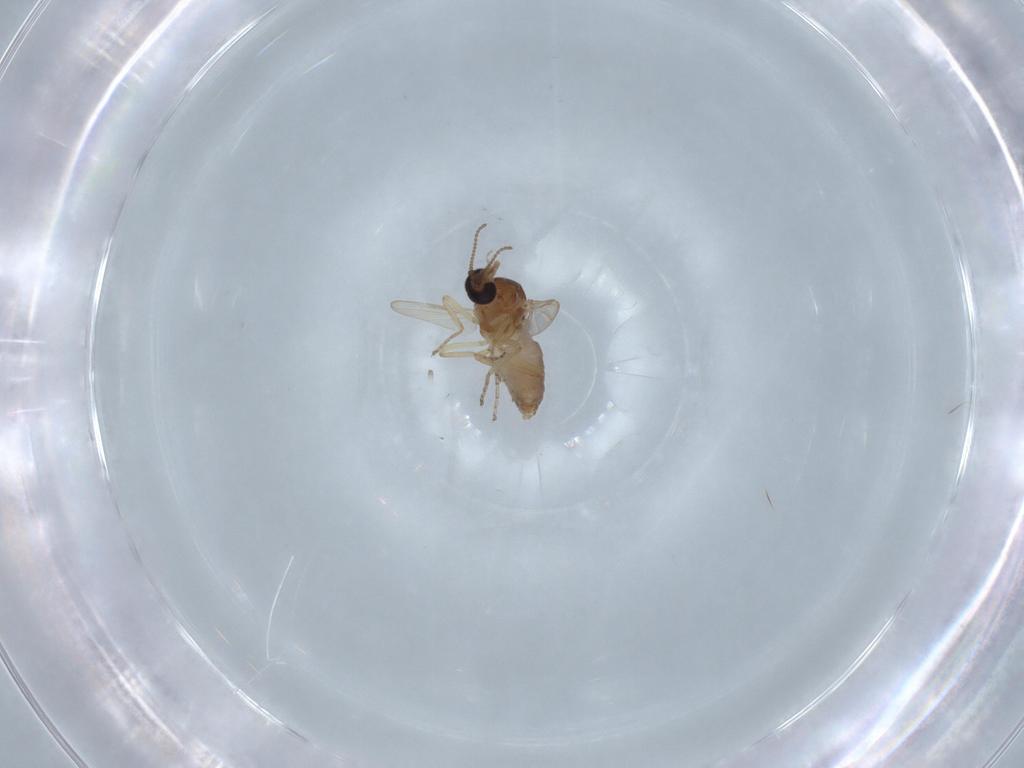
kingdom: Animalia
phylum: Arthropoda
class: Insecta
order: Diptera
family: Ceratopogonidae
